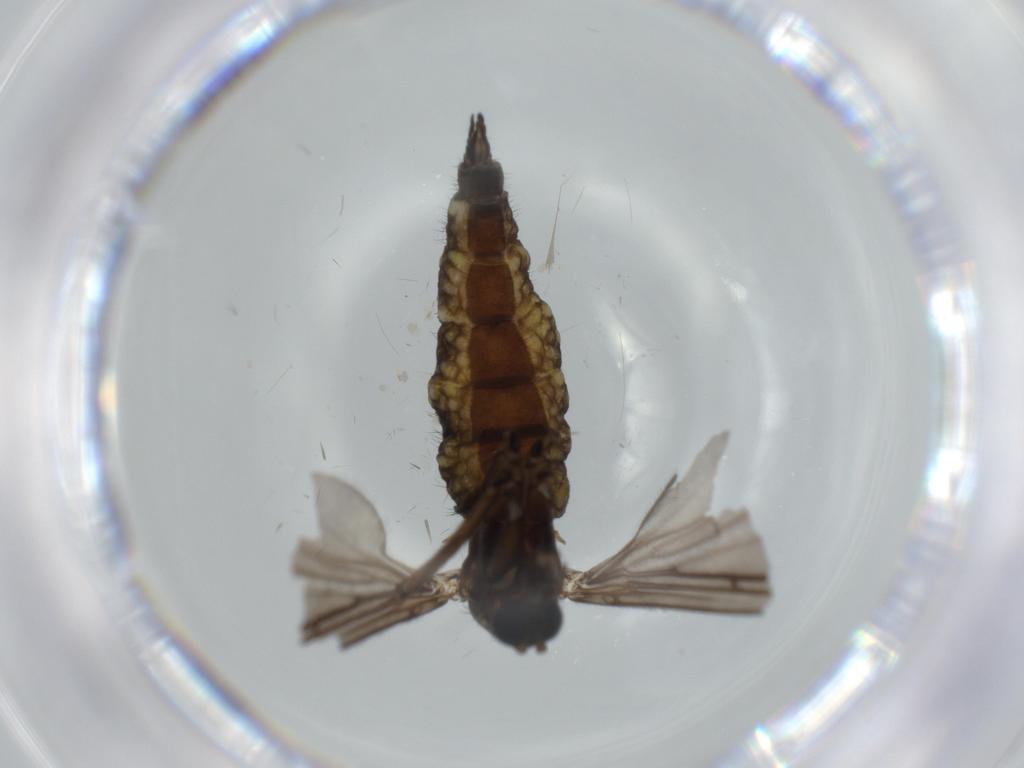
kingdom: Animalia
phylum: Arthropoda
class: Insecta
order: Diptera
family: Sciaridae
